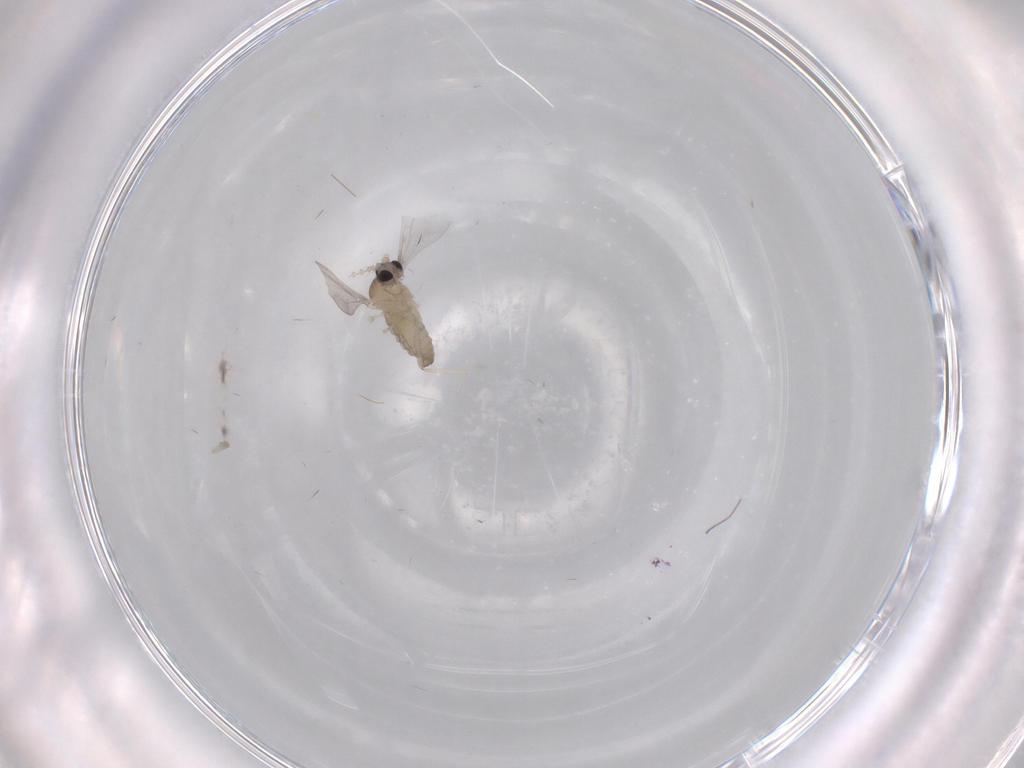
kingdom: Animalia
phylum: Arthropoda
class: Insecta
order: Diptera
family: Cecidomyiidae
